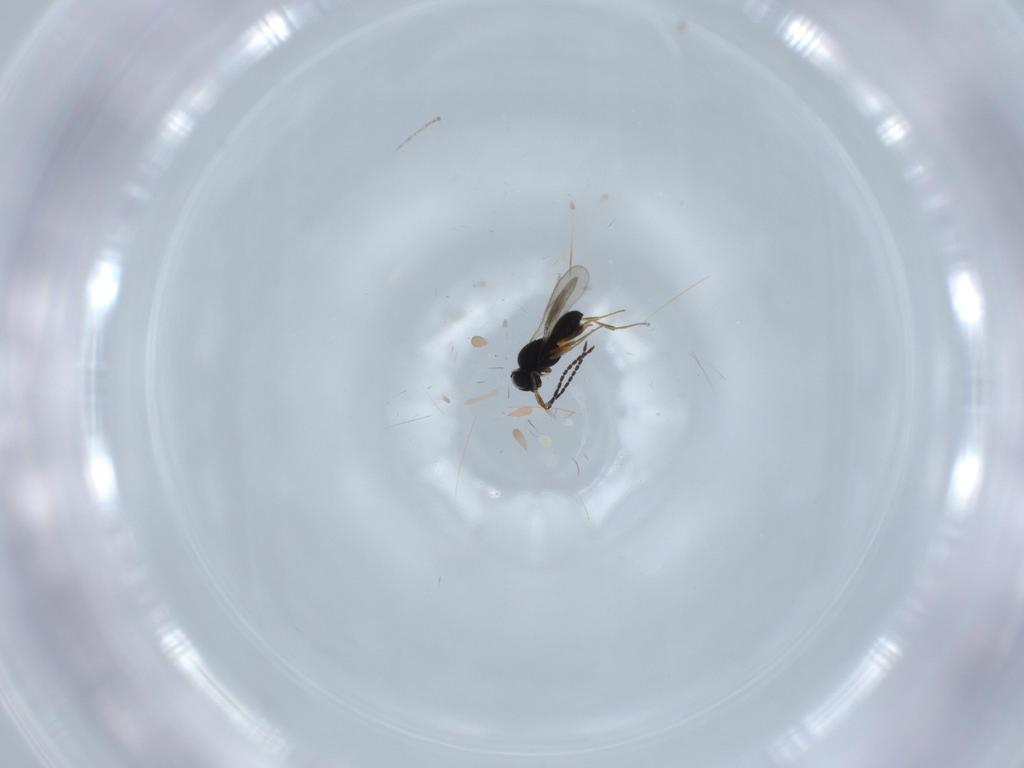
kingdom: Animalia
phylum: Arthropoda
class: Insecta
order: Hymenoptera
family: Scelionidae
